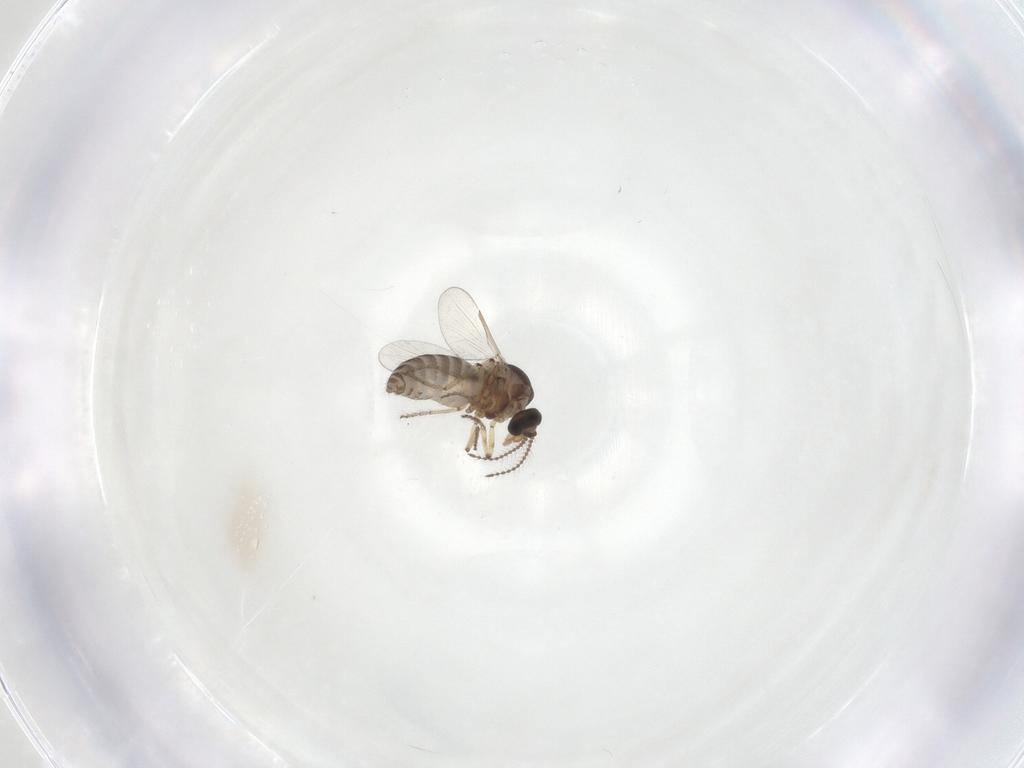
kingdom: Animalia
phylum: Arthropoda
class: Insecta
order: Diptera
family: Ceratopogonidae
